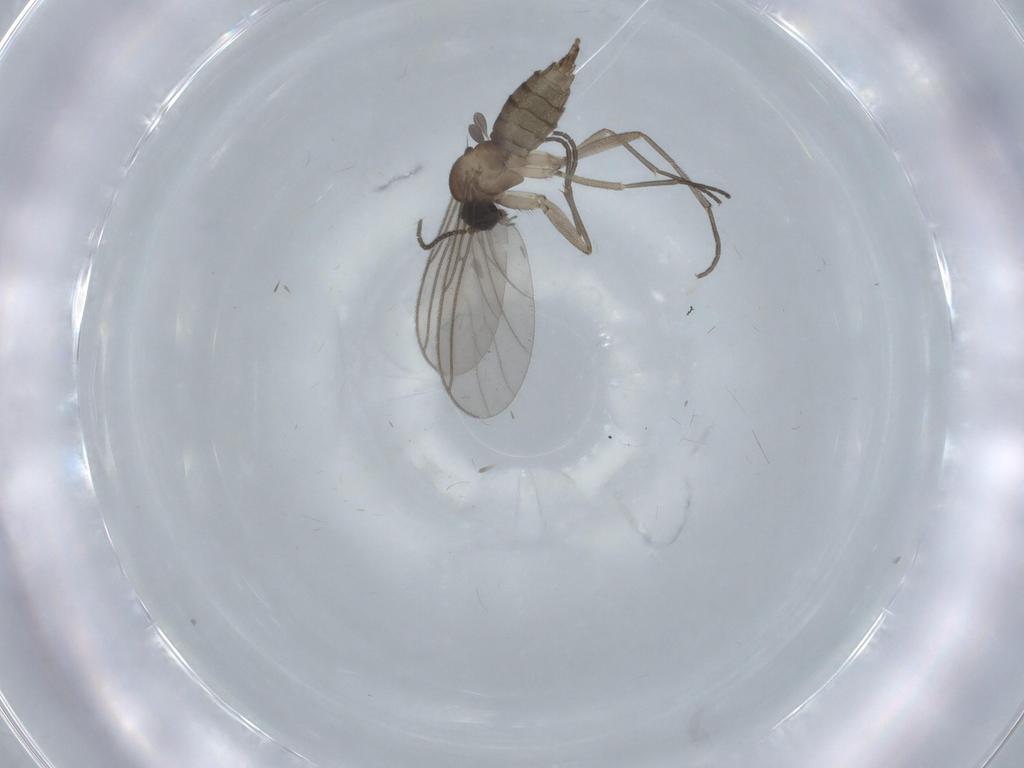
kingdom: Animalia
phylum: Arthropoda
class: Insecta
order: Diptera
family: Sciaridae
